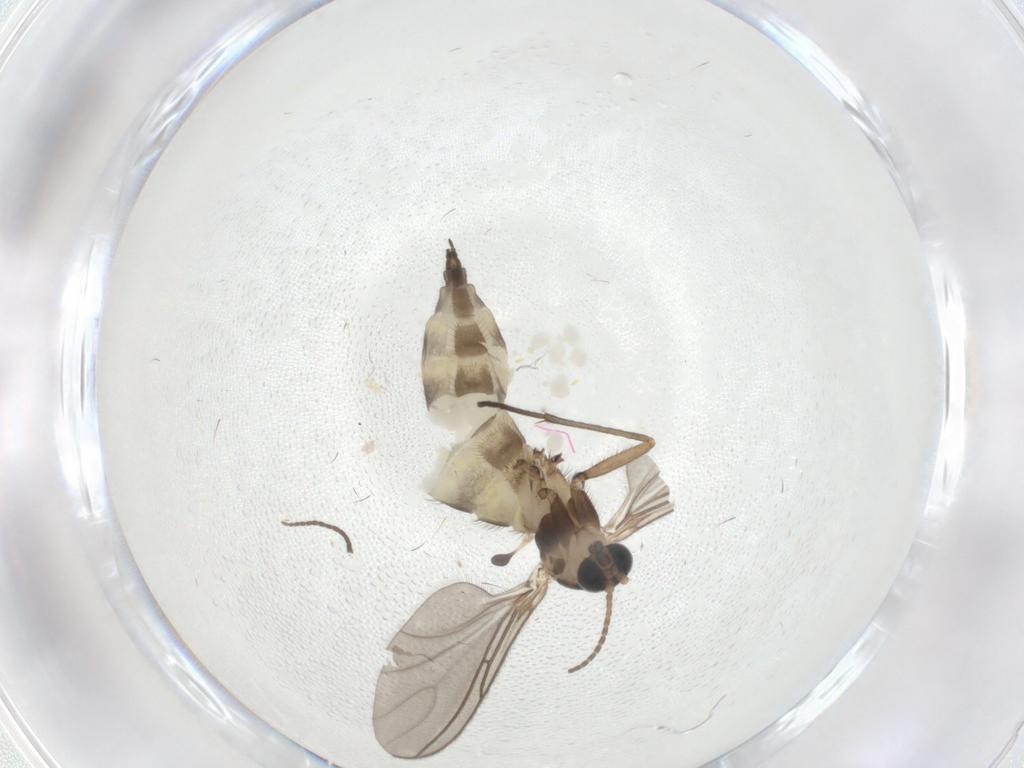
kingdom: Animalia
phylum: Arthropoda
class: Insecta
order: Diptera
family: Sciaridae
